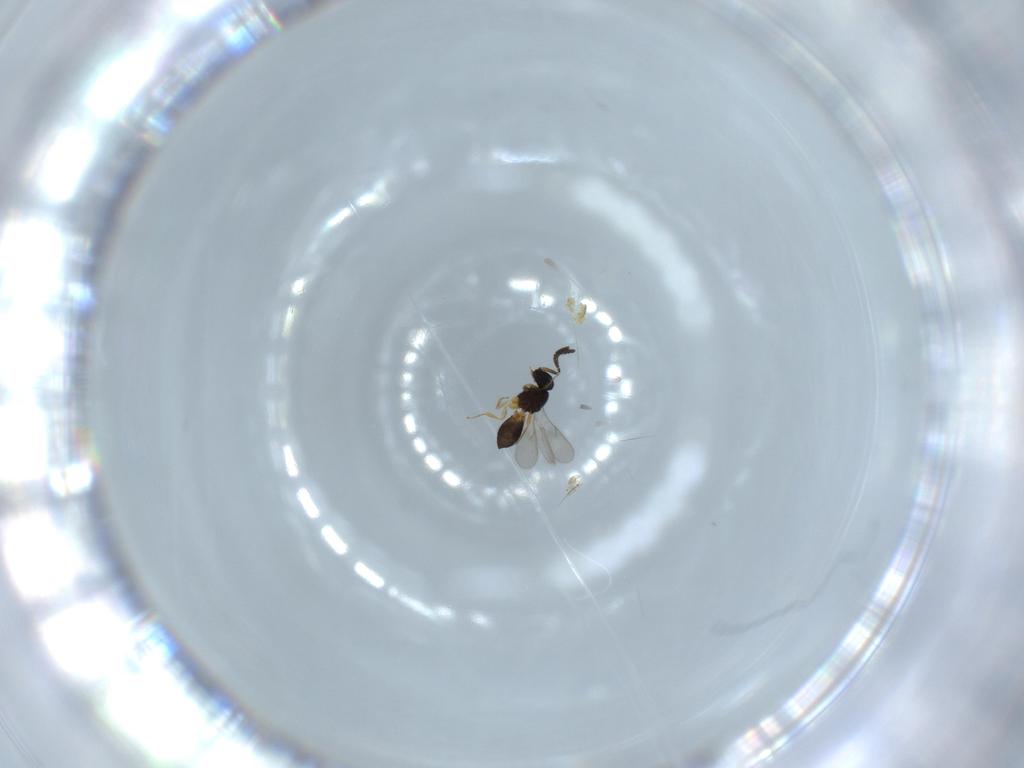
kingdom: Animalia
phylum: Arthropoda
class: Insecta
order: Hymenoptera
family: Scelionidae
